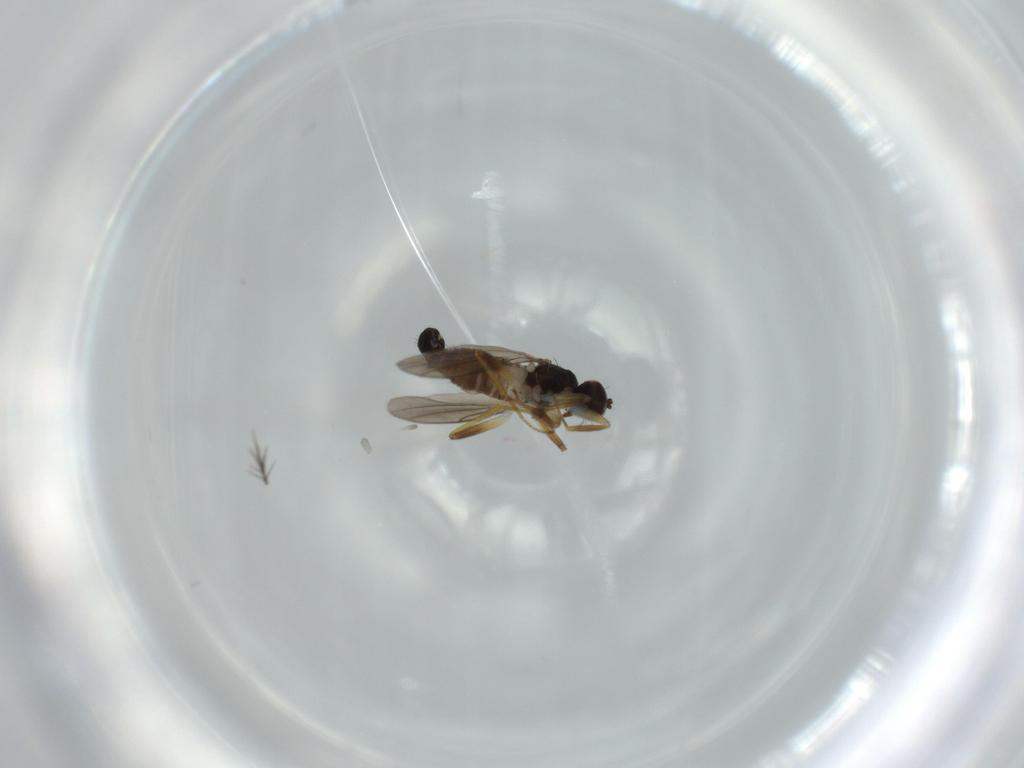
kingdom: Animalia
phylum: Arthropoda
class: Insecta
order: Diptera
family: Hybotidae
